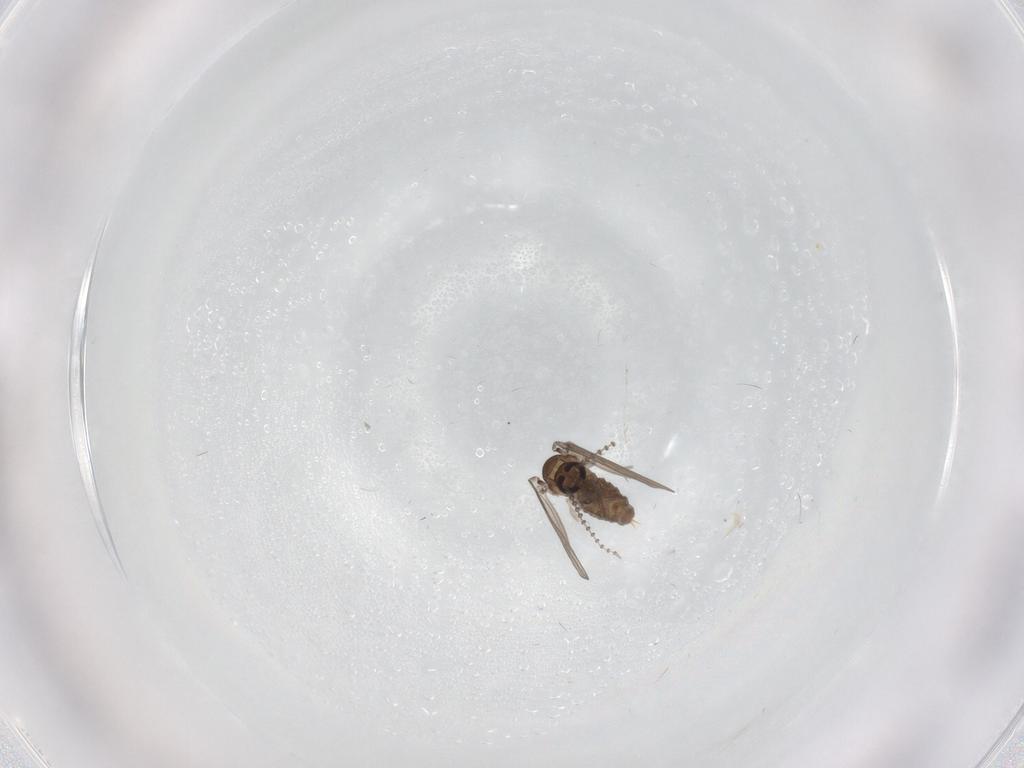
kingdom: Animalia
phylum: Arthropoda
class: Insecta
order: Diptera
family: Psychodidae
